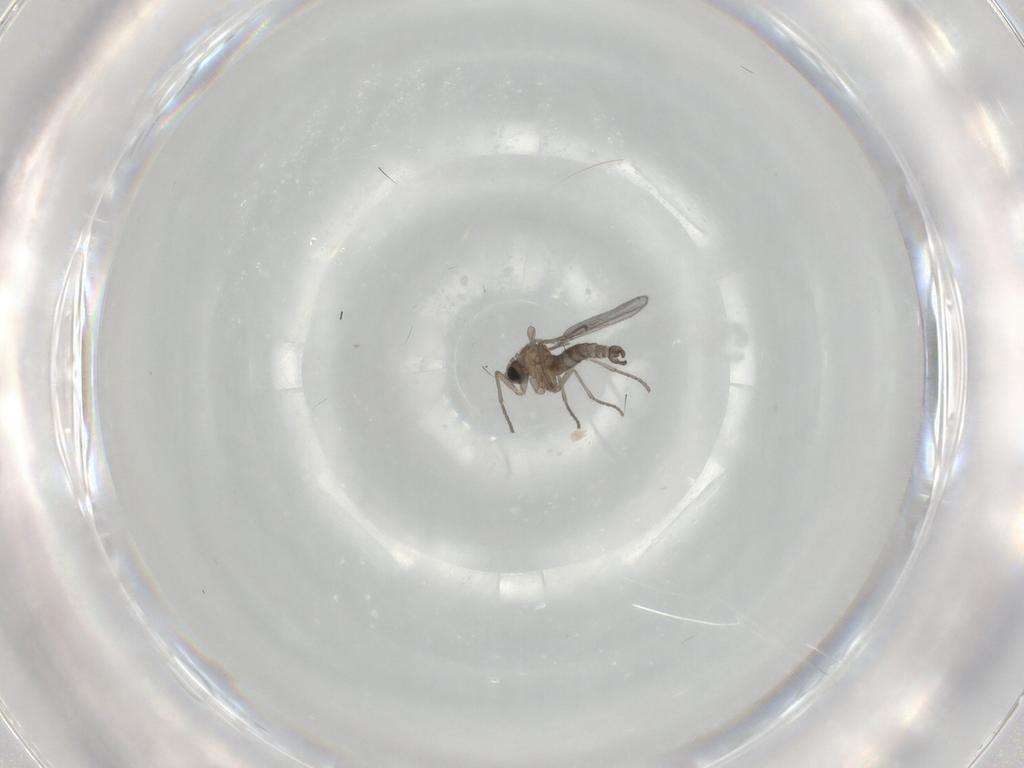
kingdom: Animalia
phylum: Arthropoda
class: Insecta
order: Diptera
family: Sciaridae
